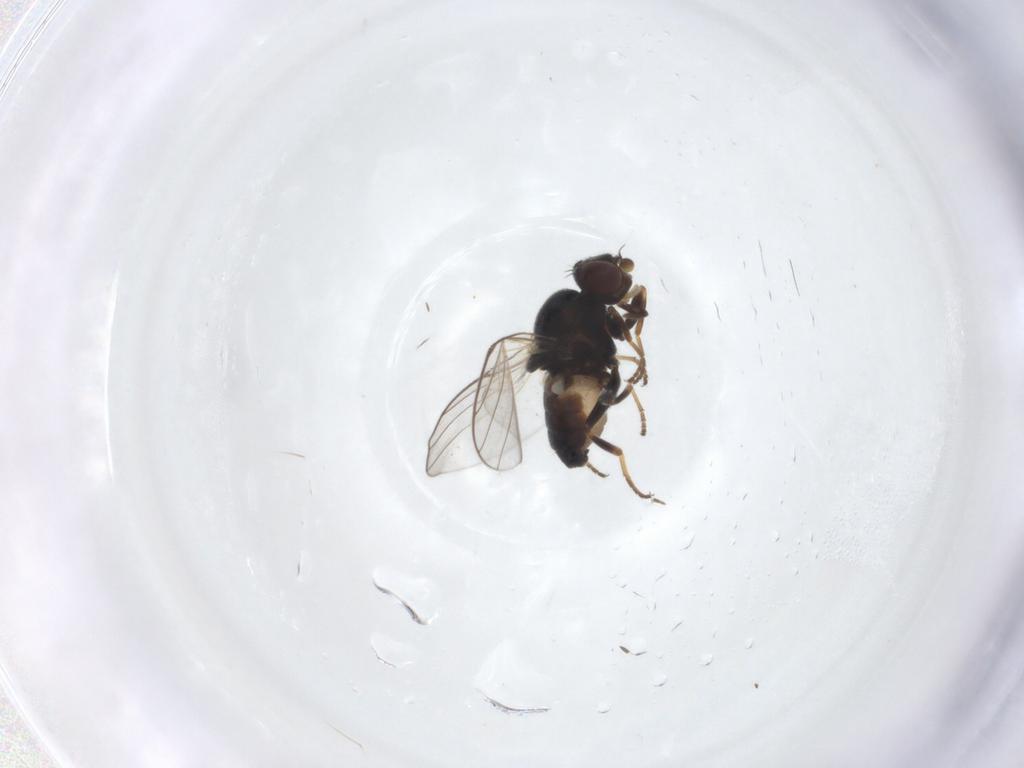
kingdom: Animalia
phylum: Arthropoda
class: Insecta
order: Diptera
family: Chloropidae
